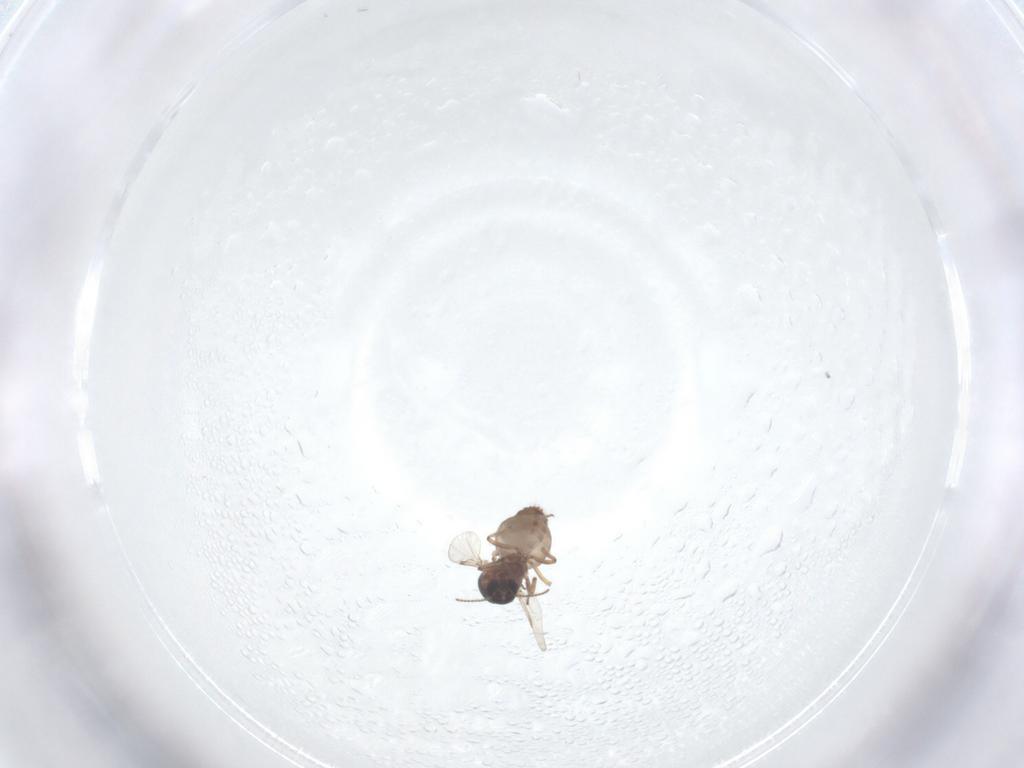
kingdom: Animalia
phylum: Arthropoda
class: Insecta
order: Diptera
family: Ceratopogonidae
